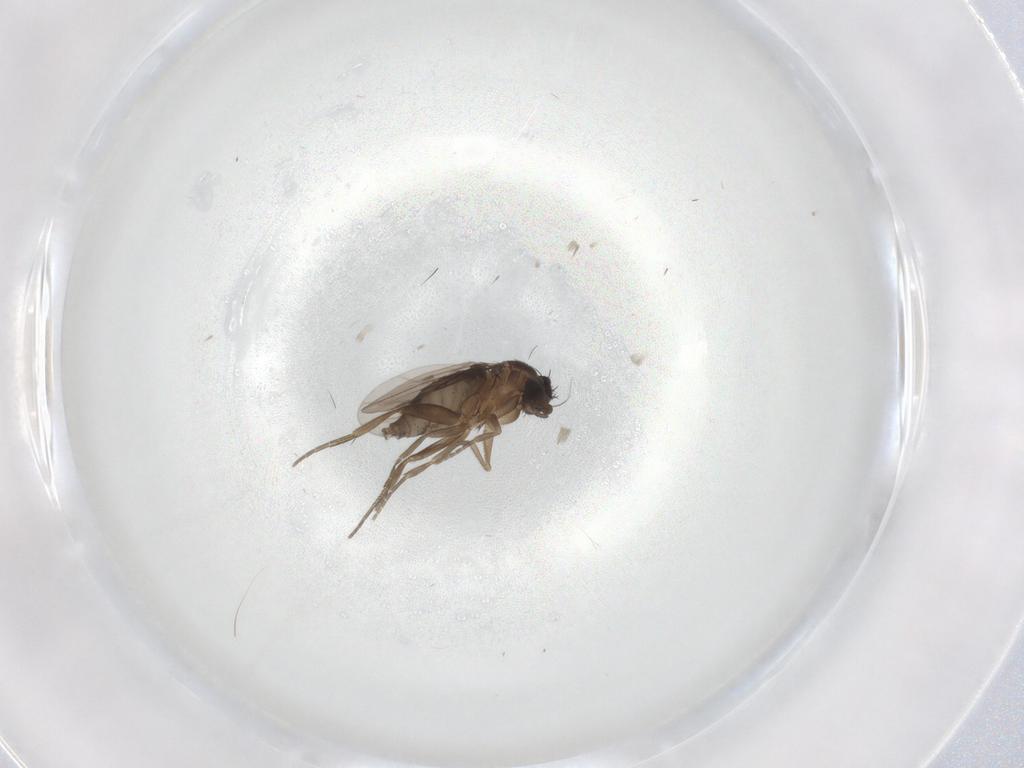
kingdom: Animalia
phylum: Arthropoda
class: Insecta
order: Diptera
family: Phoridae
